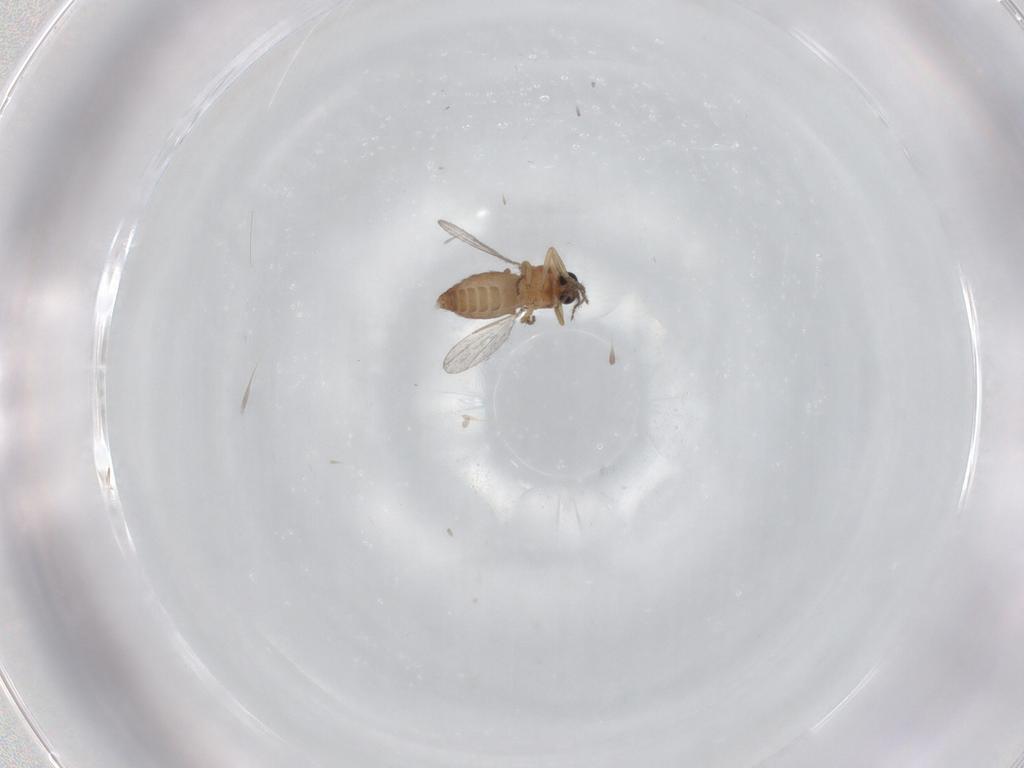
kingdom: Animalia
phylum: Arthropoda
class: Insecta
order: Diptera
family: Ceratopogonidae
